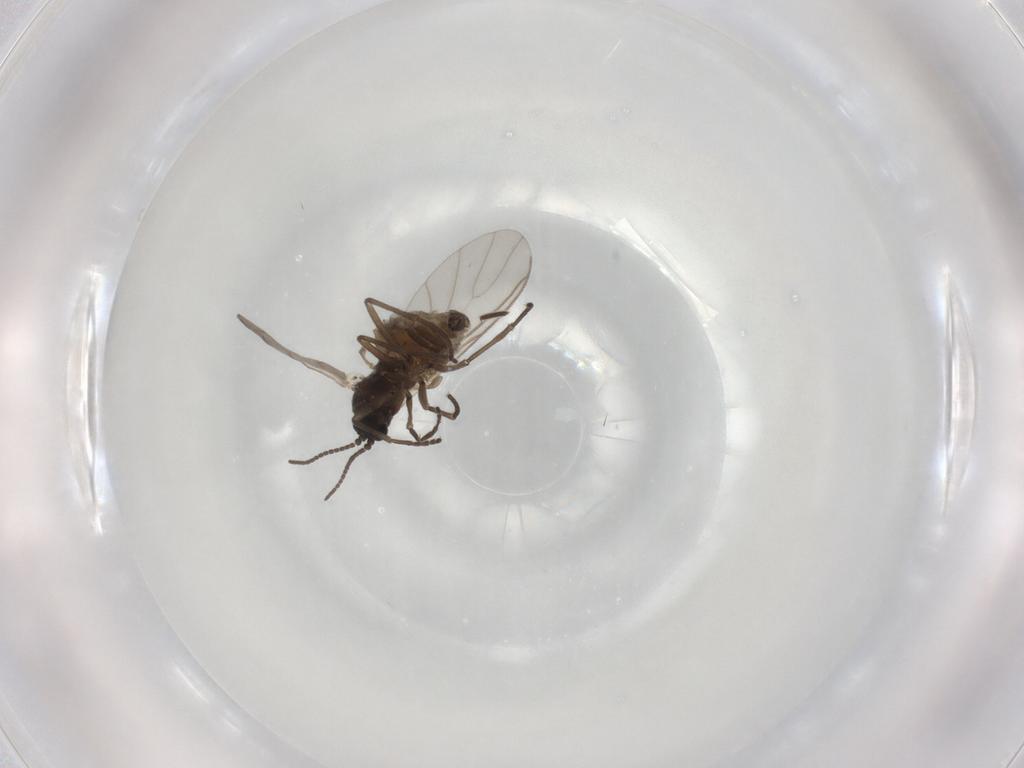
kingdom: Animalia
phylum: Arthropoda
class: Insecta
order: Diptera
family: Sciaridae
